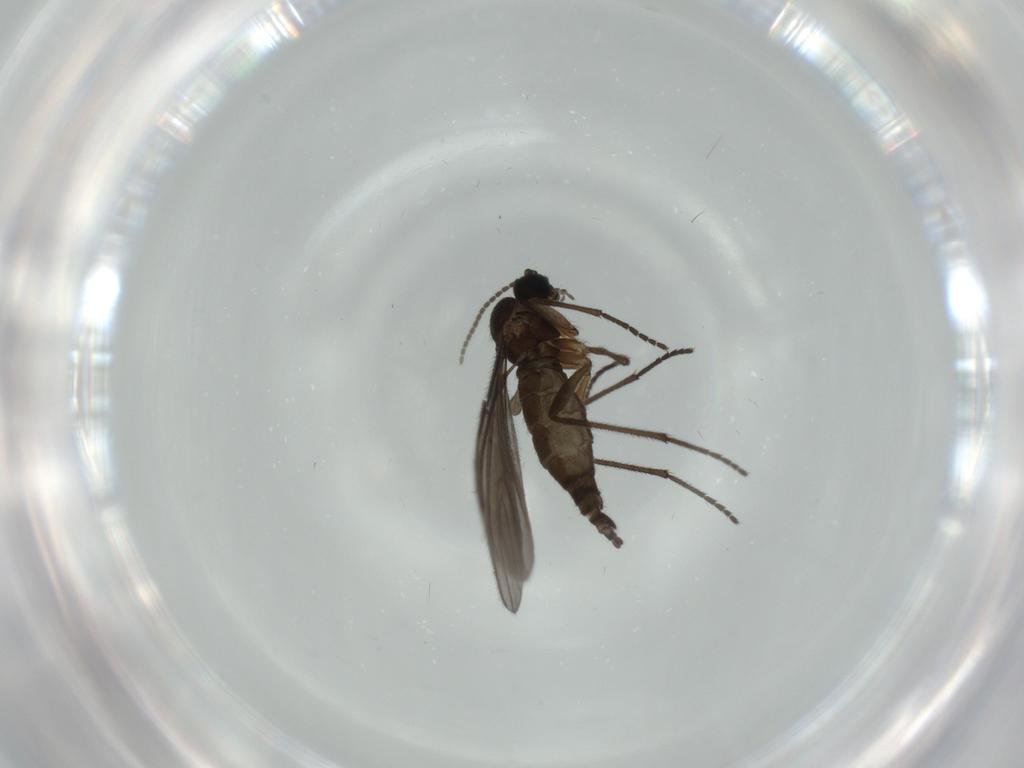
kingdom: Animalia
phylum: Arthropoda
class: Insecta
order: Diptera
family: Sciaridae
